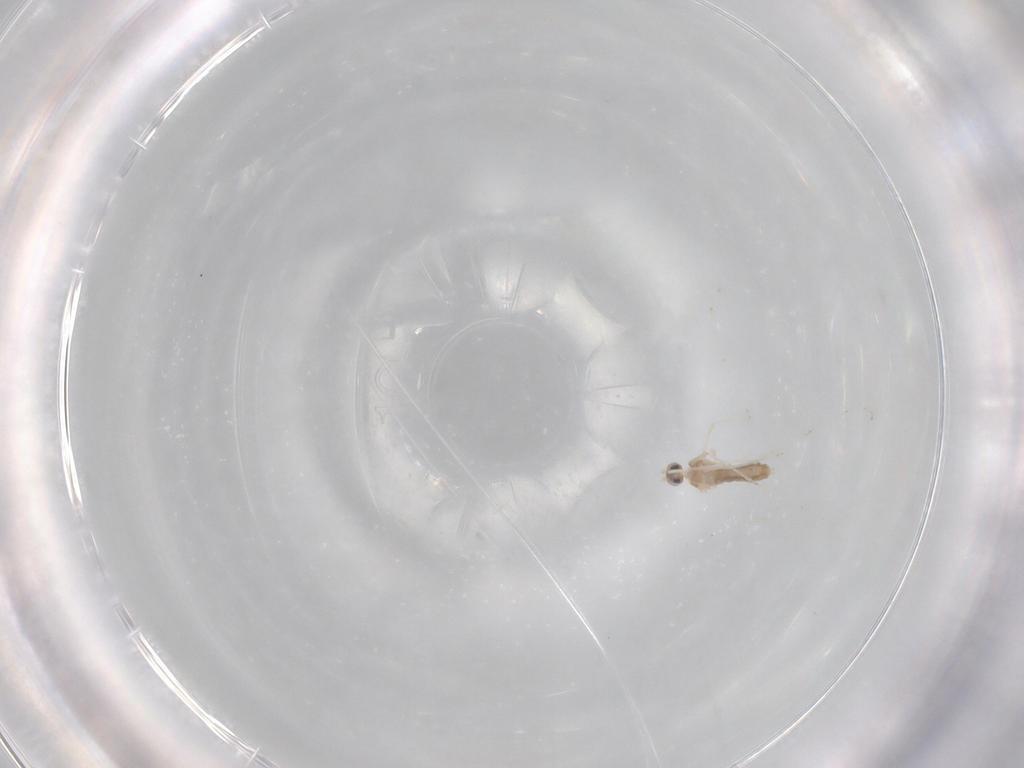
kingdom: Animalia
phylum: Arthropoda
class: Insecta
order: Diptera
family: Cecidomyiidae
